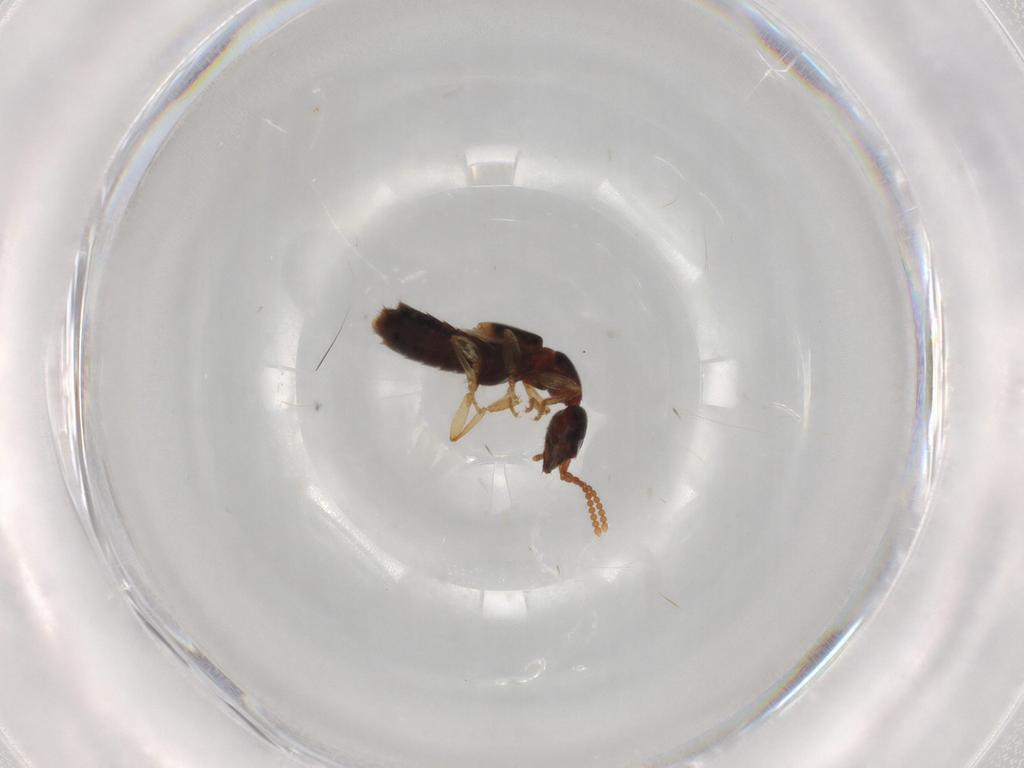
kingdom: Animalia
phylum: Arthropoda
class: Insecta
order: Coleoptera
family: Staphylinidae
